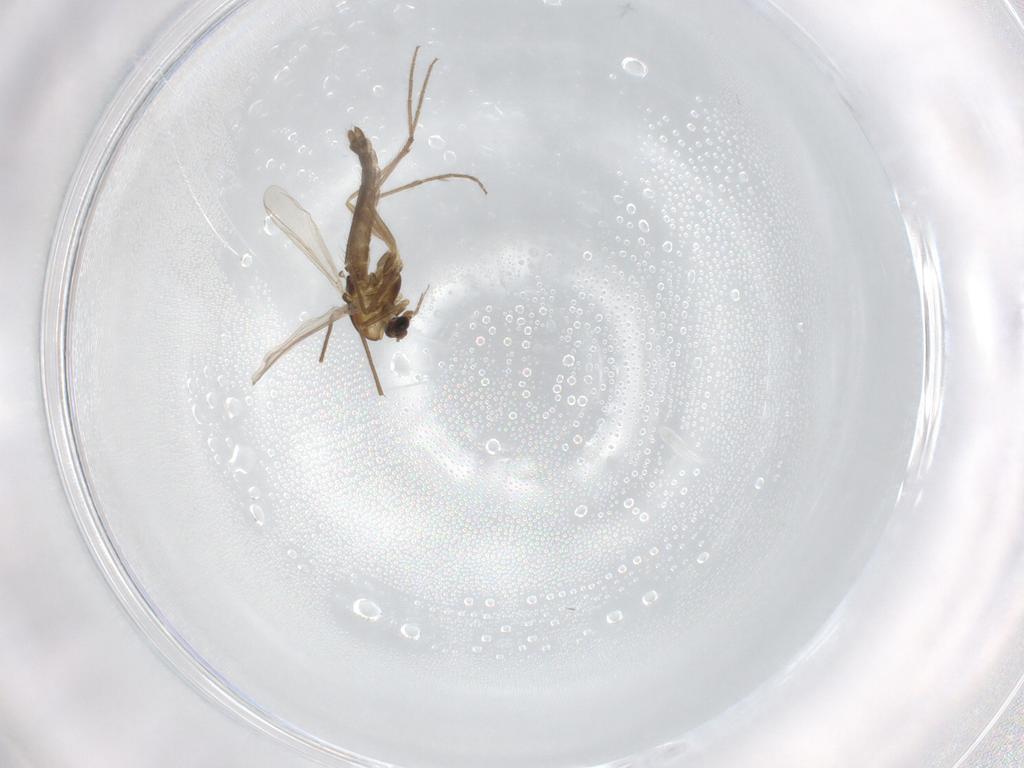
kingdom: Animalia
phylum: Arthropoda
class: Insecta
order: Diptera
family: Chironomidae
